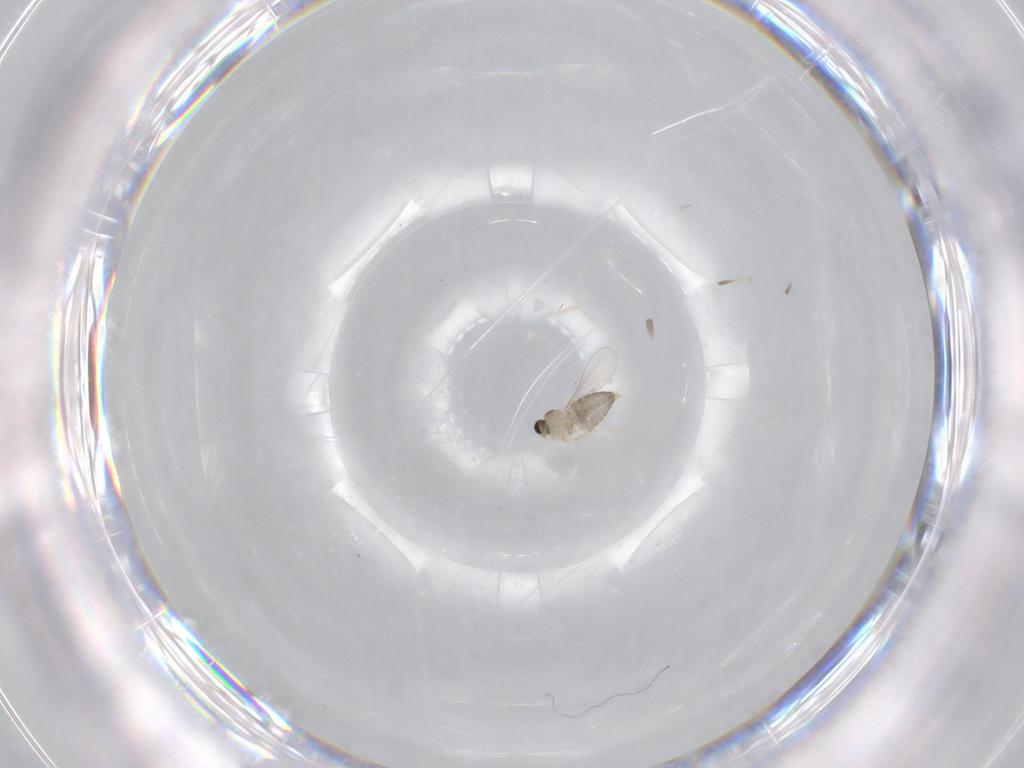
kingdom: Animalia
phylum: Arthropoda
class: Insecta
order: Diptera
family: Cecidomyiidae
